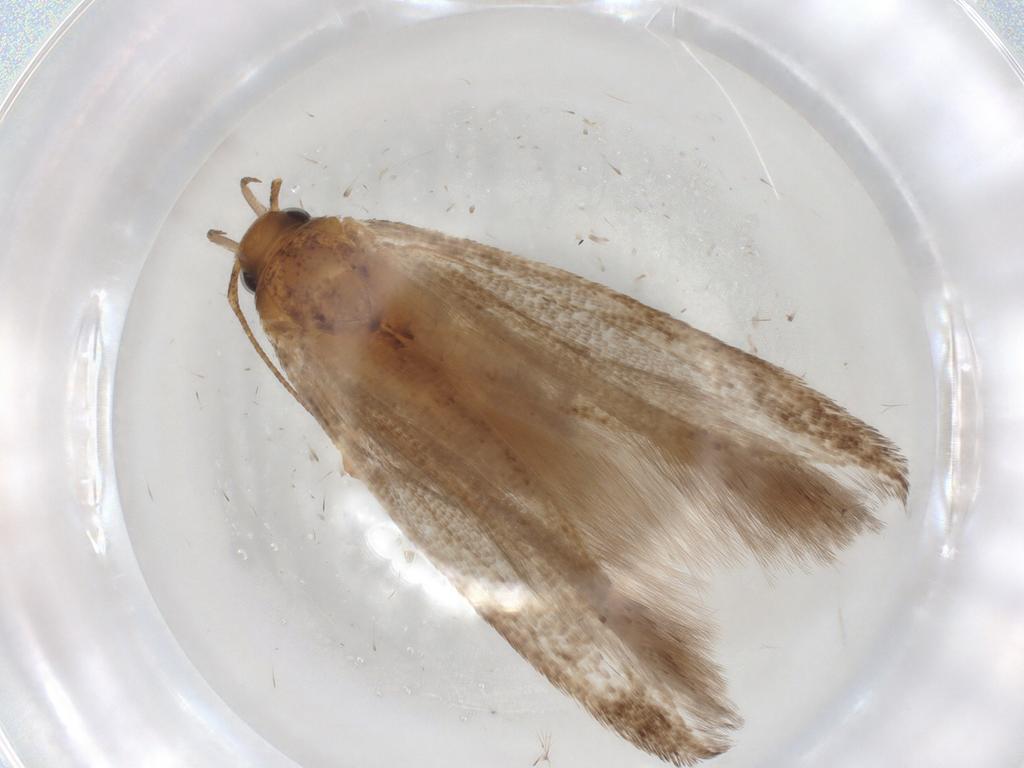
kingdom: Animalia
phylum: Arthropoda
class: Insecta
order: Lepidoptera
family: Gelechiidae
